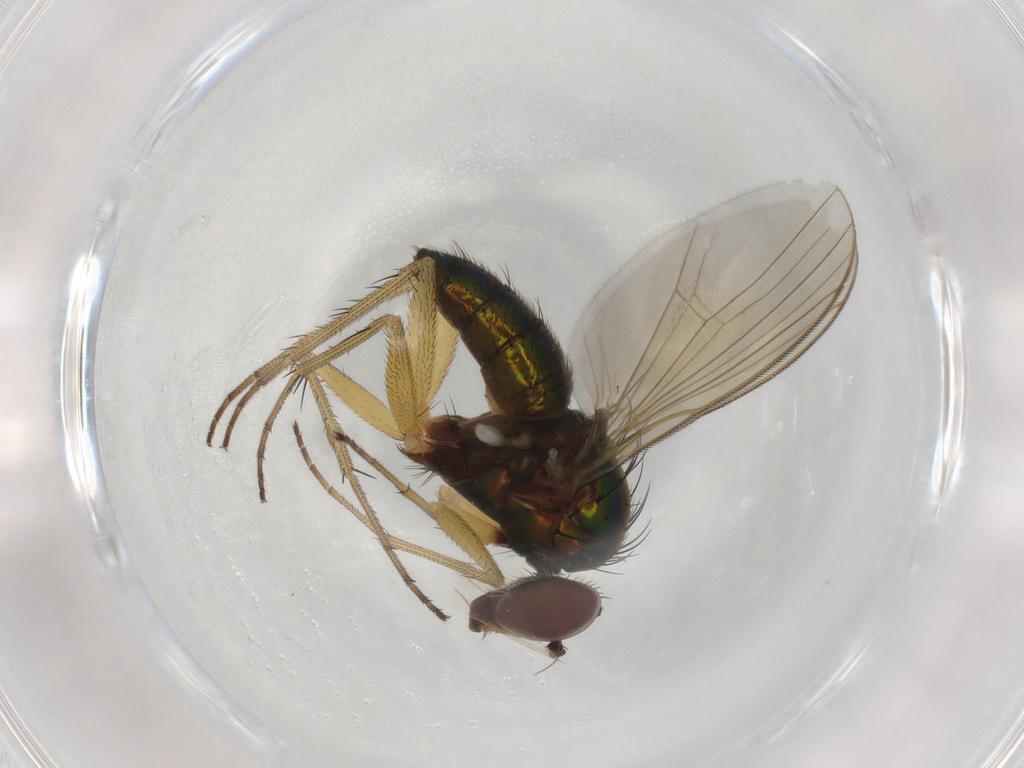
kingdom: Animalia
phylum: Arthropoda
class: Insecta
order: Diptera
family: Dolichopodidae
